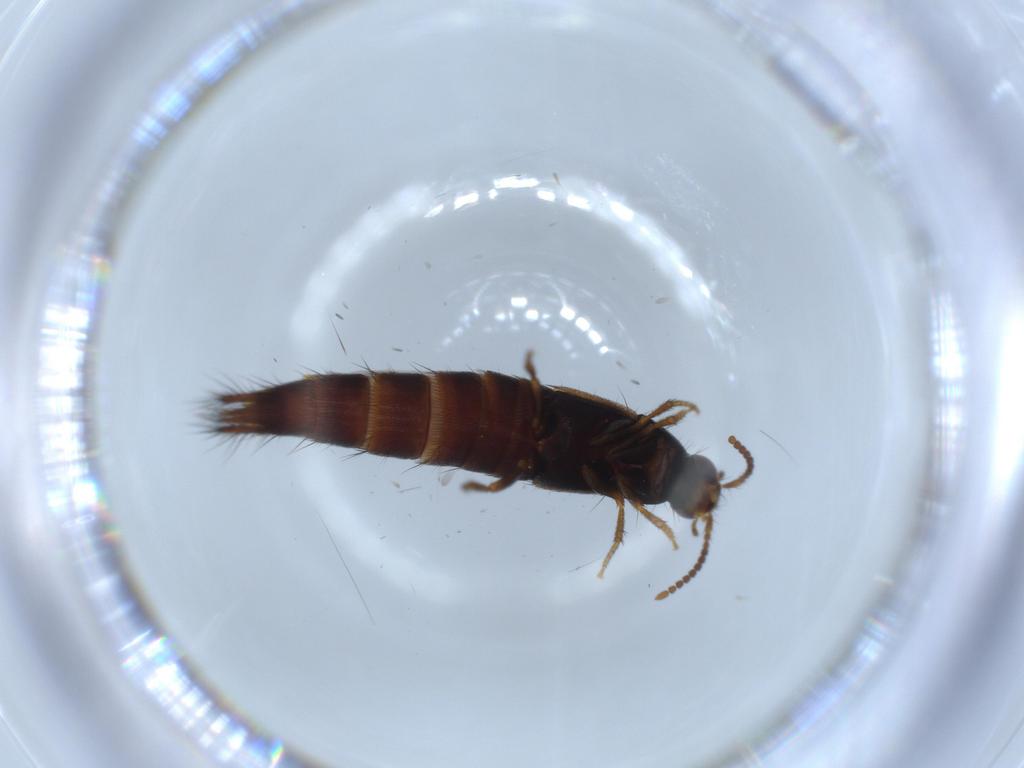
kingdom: Animalia
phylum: Arthropoda
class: Insecta
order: Coleoptera
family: Staphylinidae
